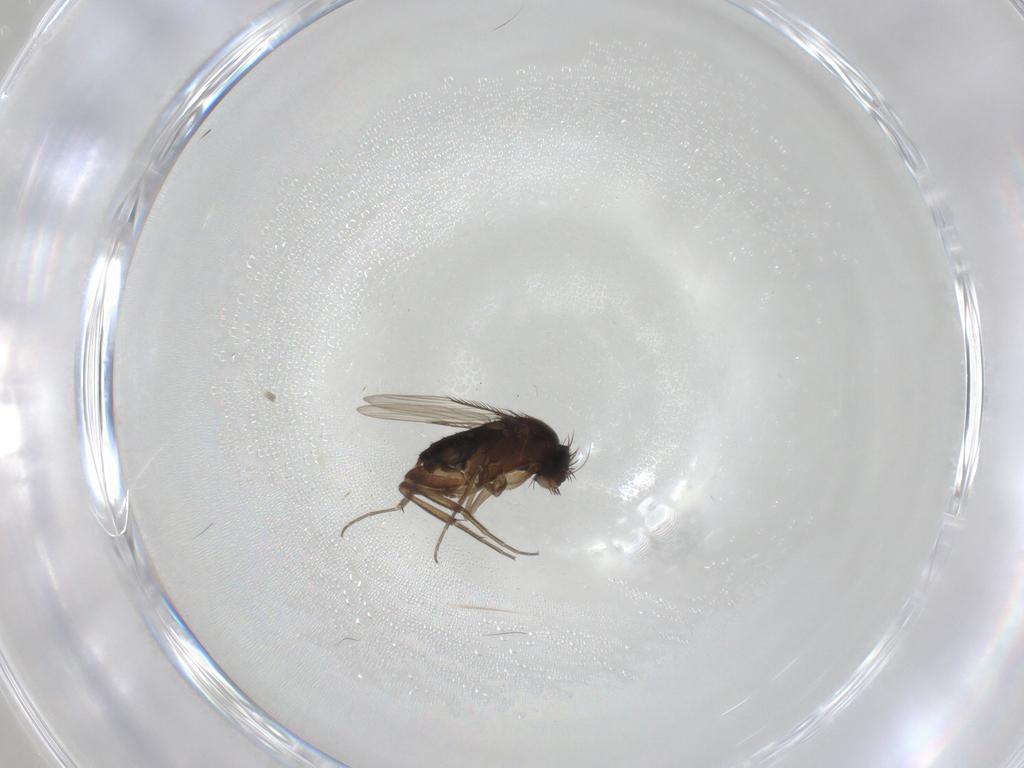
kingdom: Animalia
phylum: Arthropoda
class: Insecta
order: Diptera
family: Phoridae
